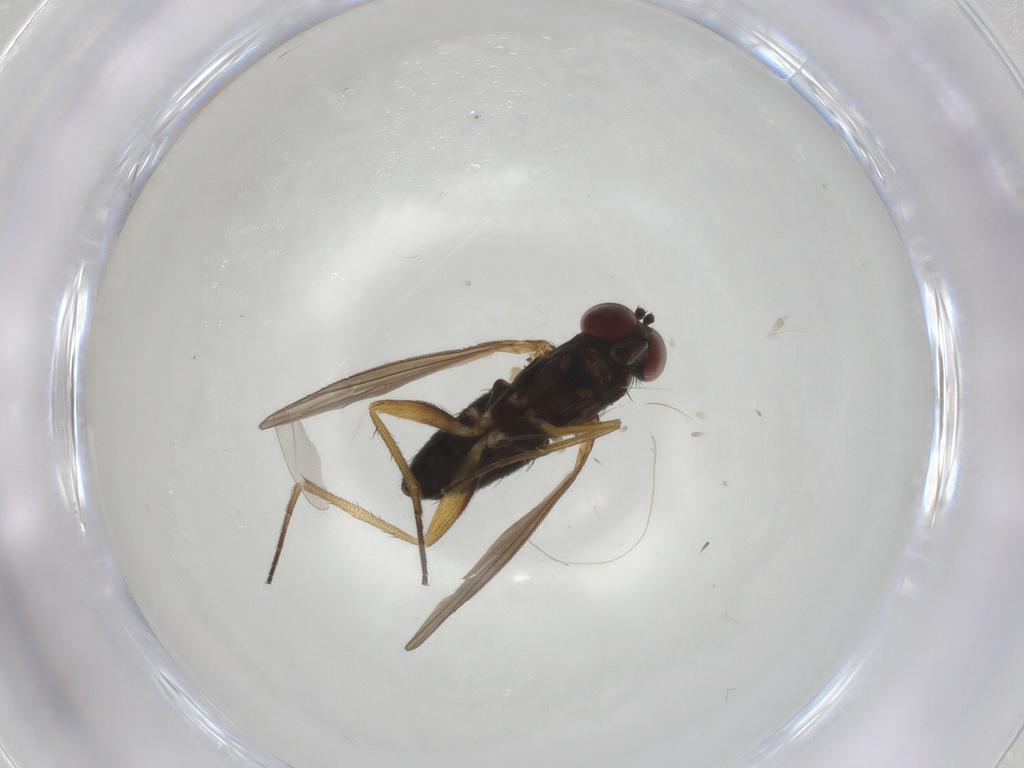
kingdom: Animalia
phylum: Arthropoda
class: Insecta
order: Diptera
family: Dolichopodidae
